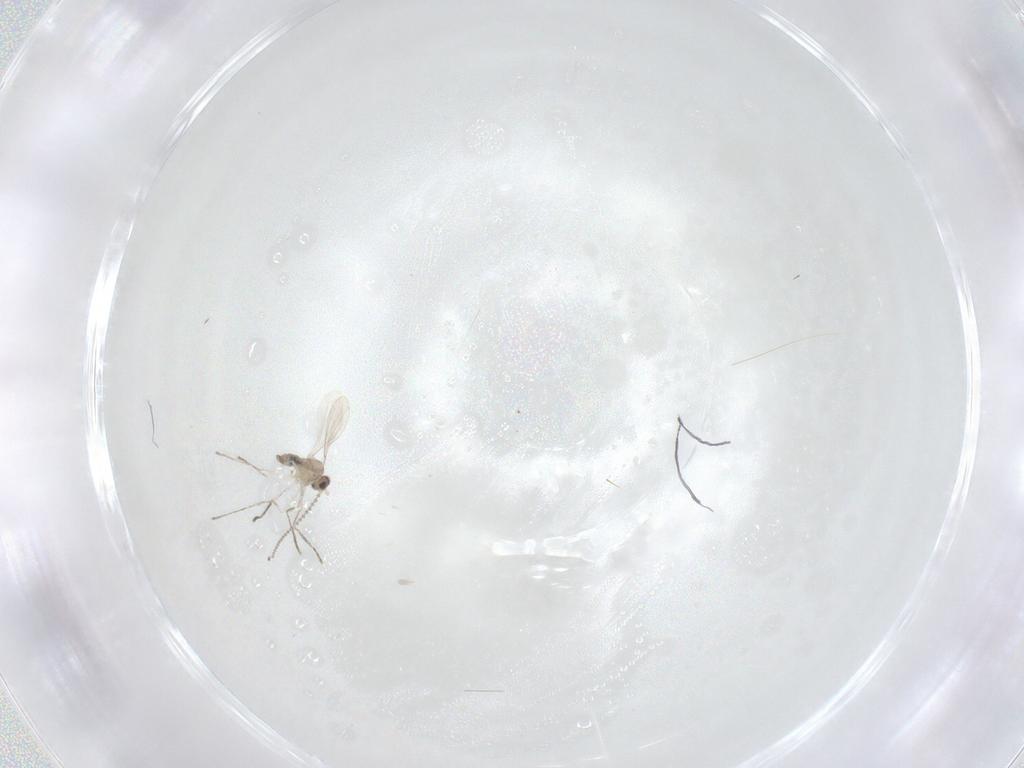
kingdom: Animalia
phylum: Arthropoda
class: Insecta
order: Diptera
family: Cecidomyiidae
